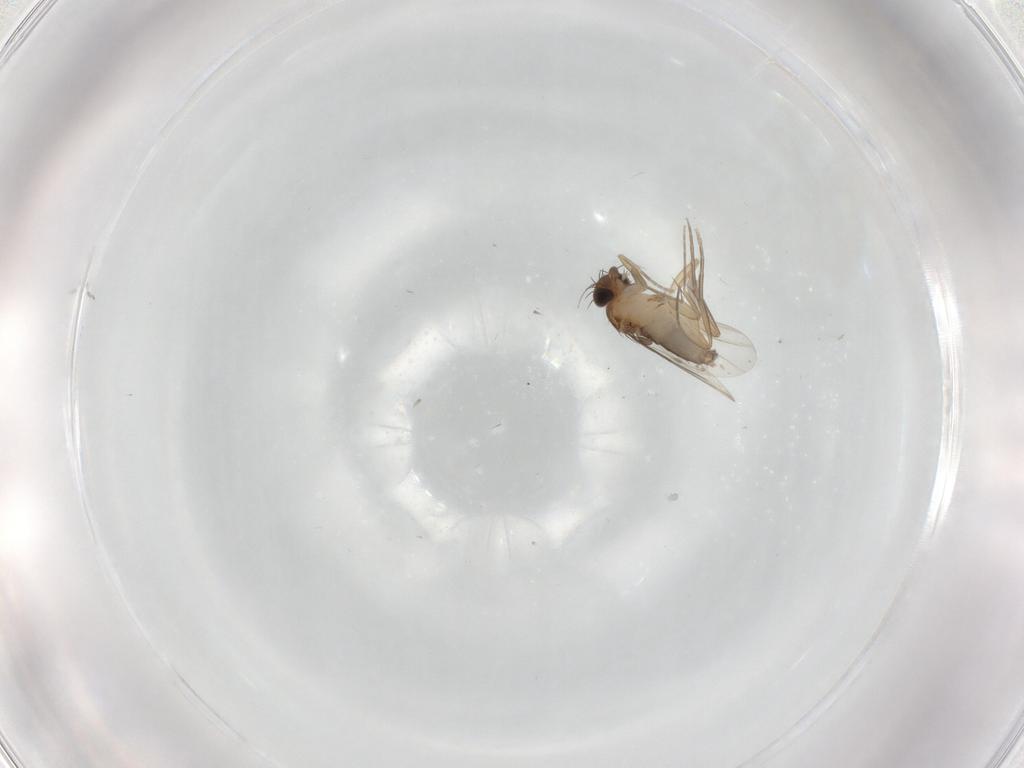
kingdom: Animalia
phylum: Arthropoda
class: Insecta
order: Diptera
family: Phoridae
